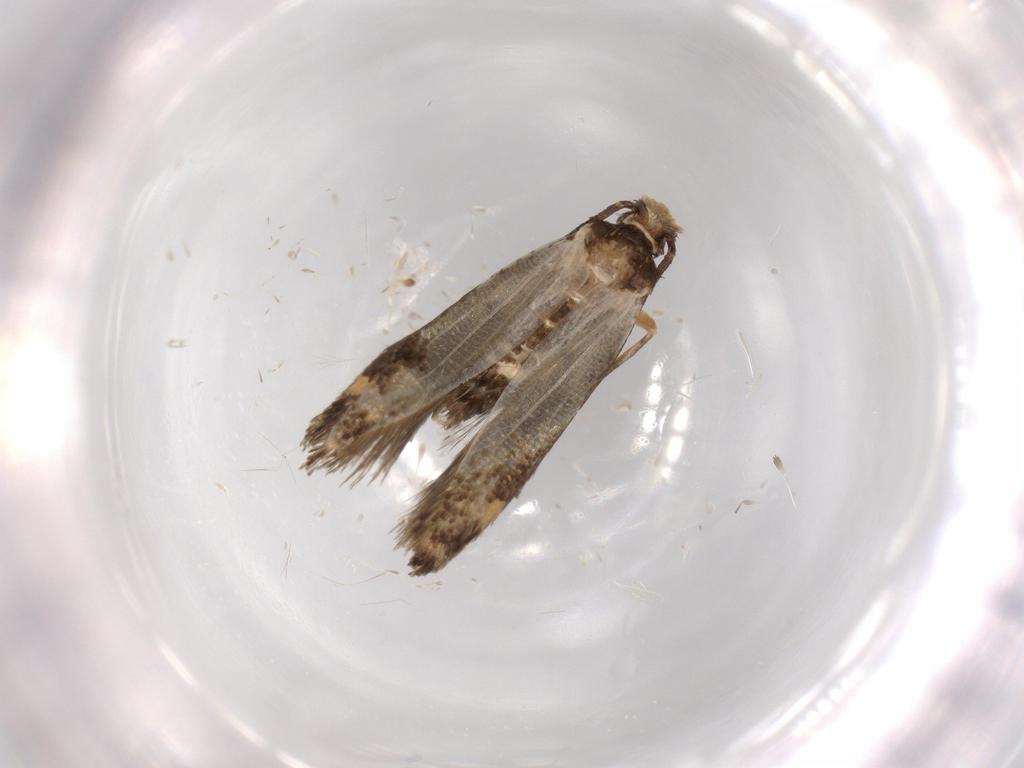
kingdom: Animalia
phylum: Arthropoda
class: Insecta
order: Lepidoptera
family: Tineidae
